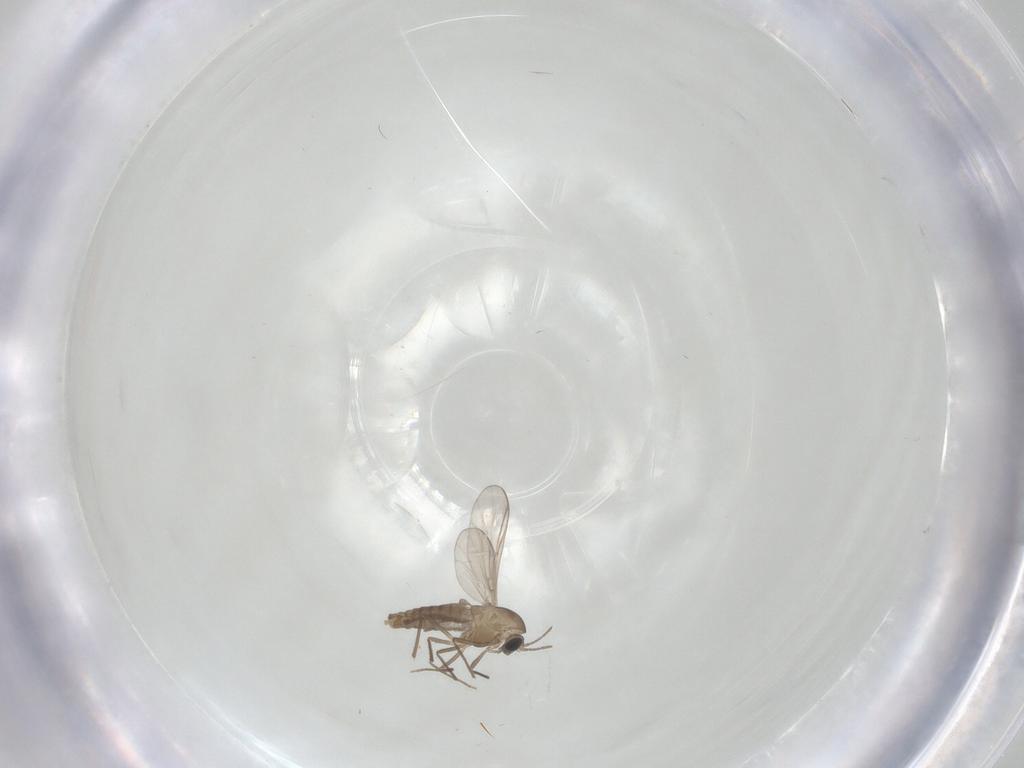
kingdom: Animalia
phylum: Arthropoda
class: Insecta
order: Diptera
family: Chironomidae
